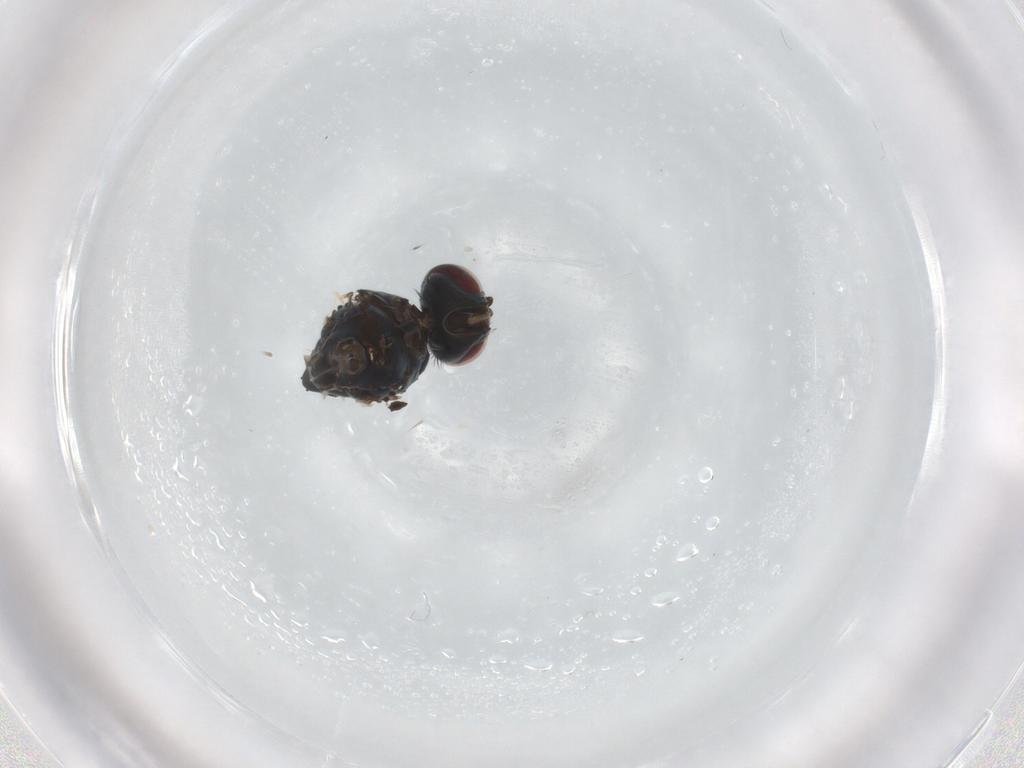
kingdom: Animalia
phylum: Arthropoda
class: Insecta
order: Diptera
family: Muscidae
